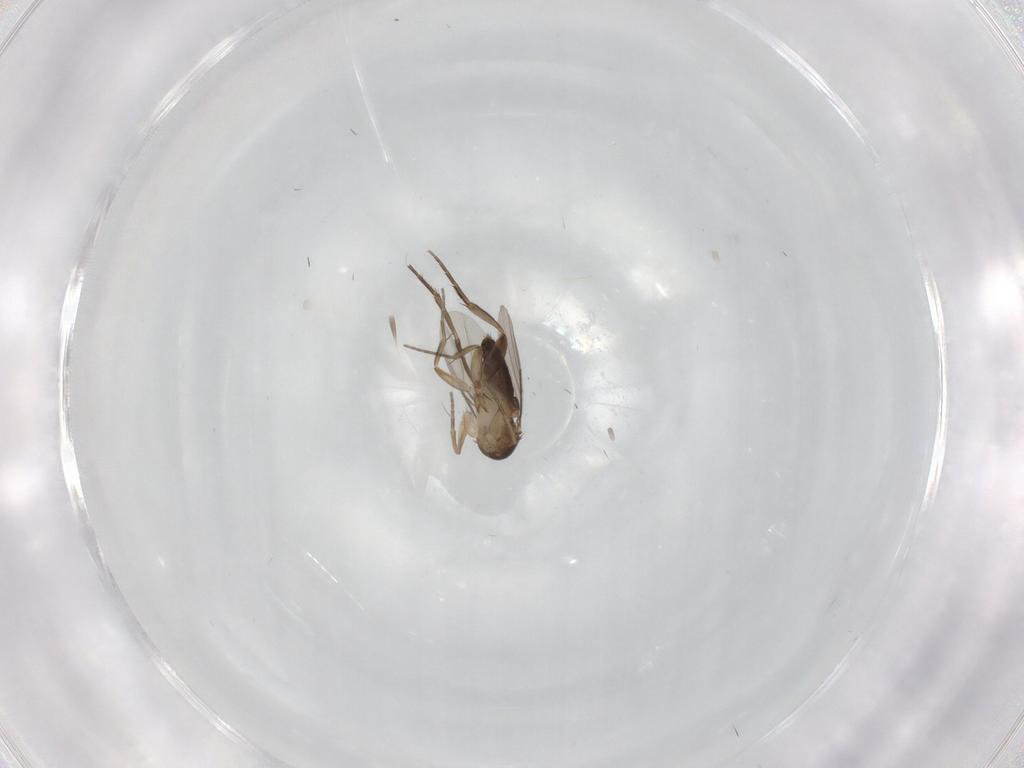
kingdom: Animalia
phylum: Arthropoda
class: Insecta
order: Diptera
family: Phoridae
